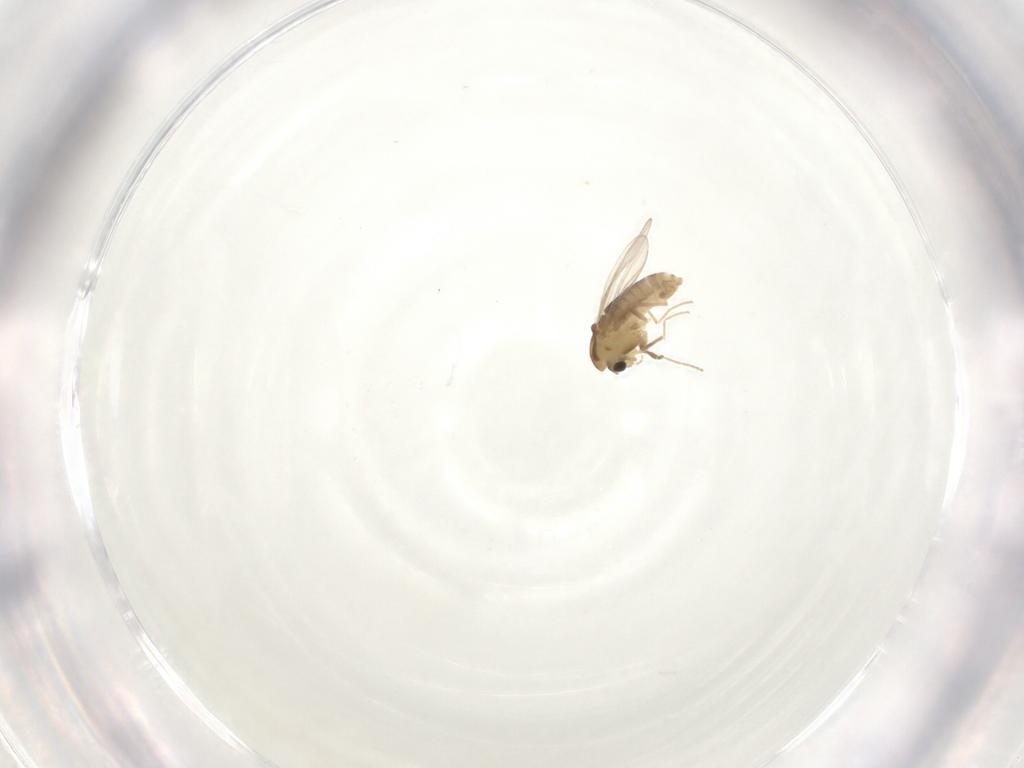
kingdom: Animalia
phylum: Arthropoda
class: Insecta
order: Diptera
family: Chironomidae
